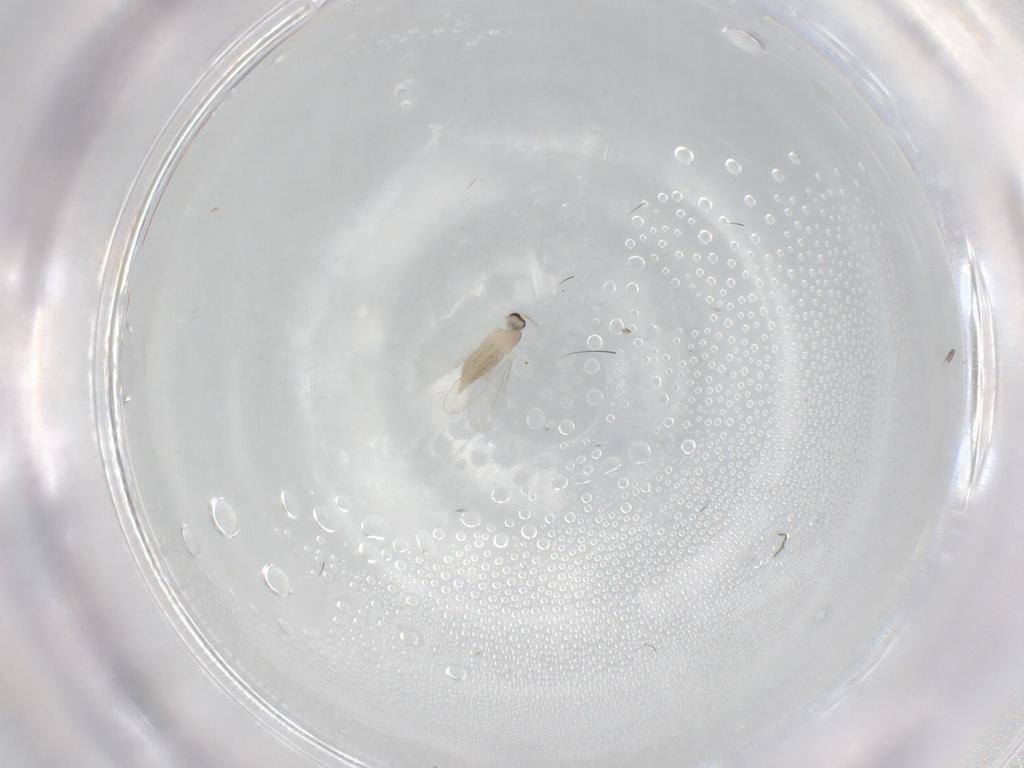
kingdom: Animalia
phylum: Arthropoda
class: Insecta
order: Diptera
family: Cecidomyiidae
